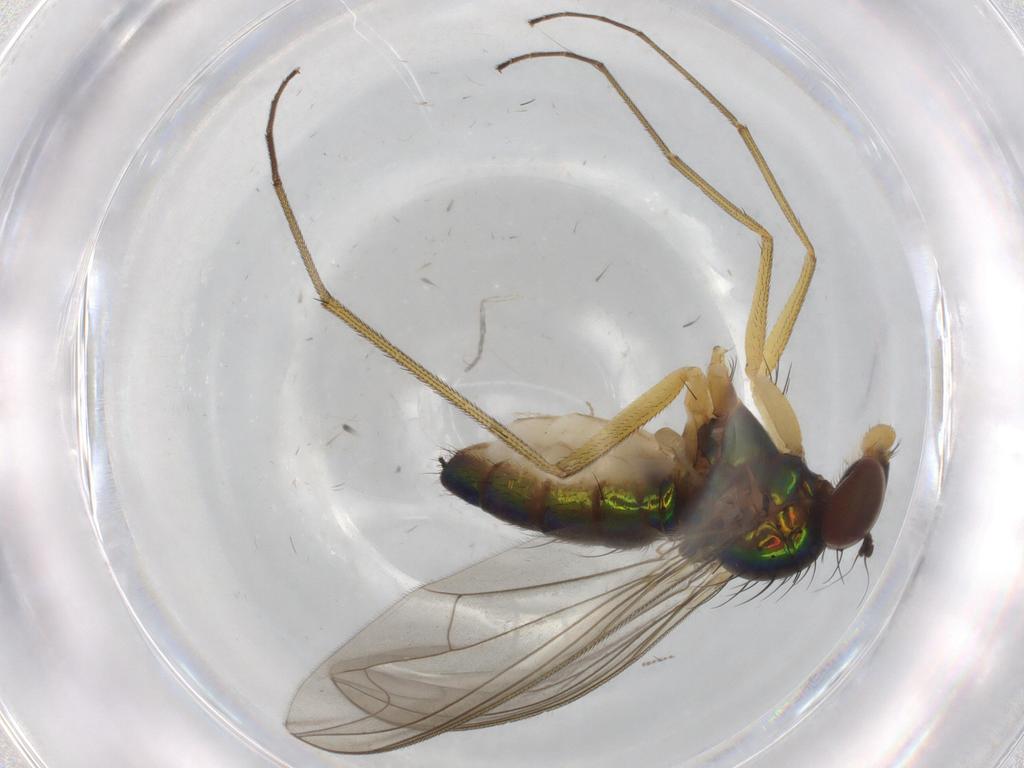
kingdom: Animalia
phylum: Arthropoda
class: Insecta
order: Diptera
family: Dolichopodidae
